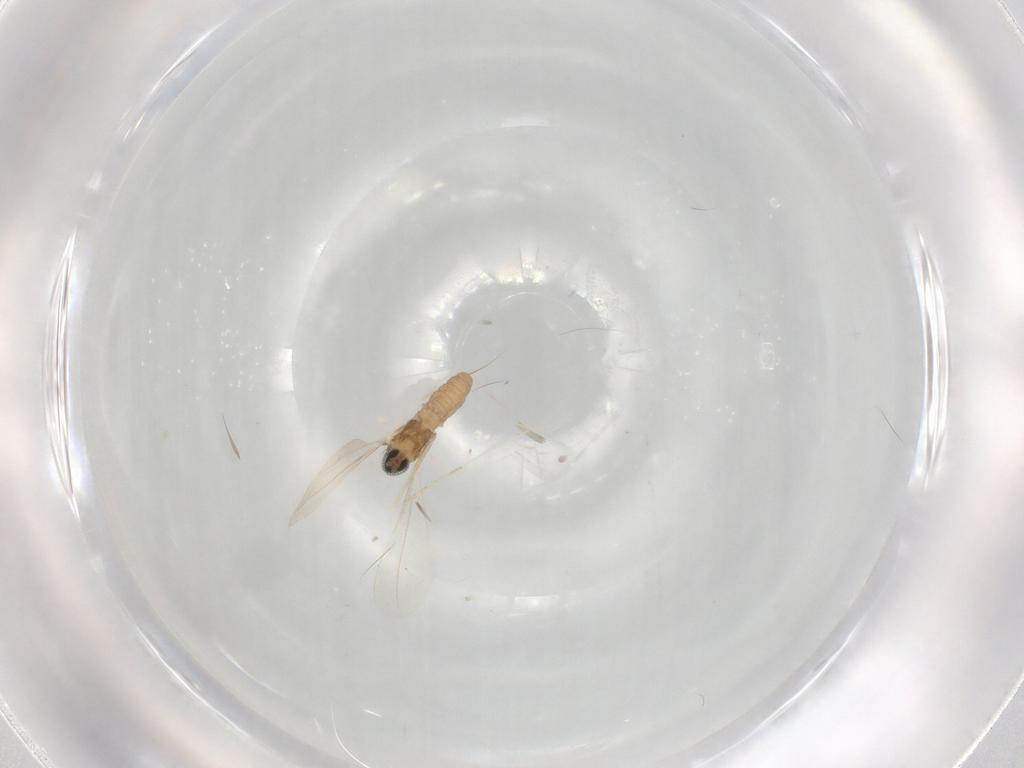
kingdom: Animalia
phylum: Arthropoda
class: Insecta
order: Diptera
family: Cecidomyiidae
